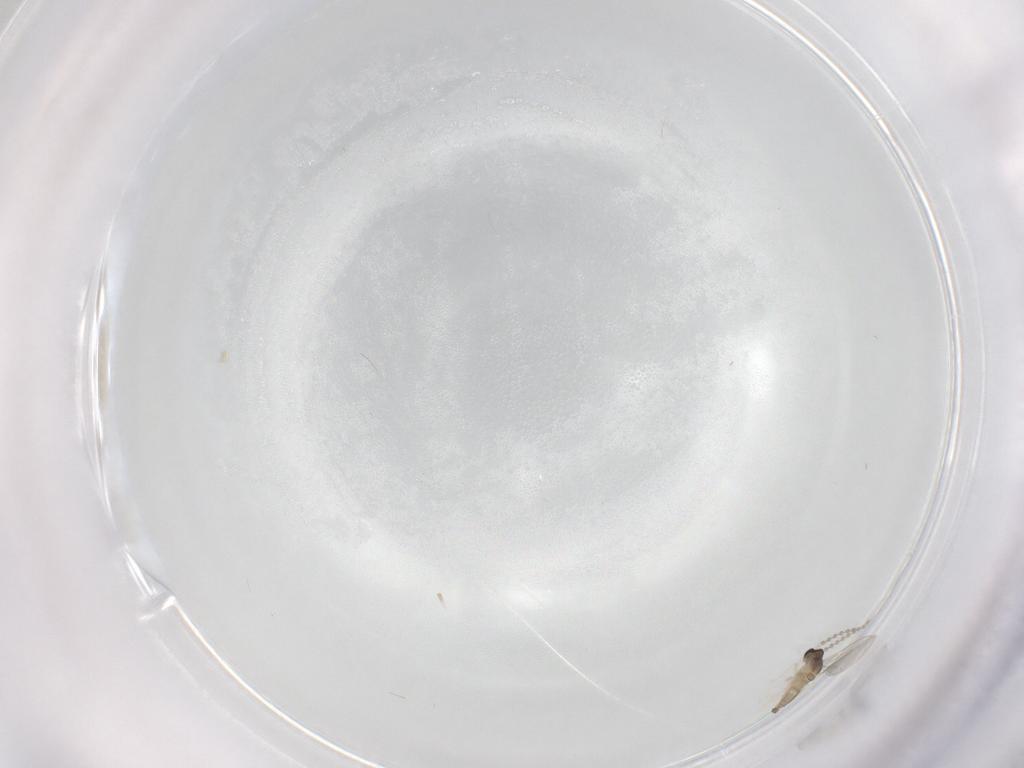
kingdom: Animalia
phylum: Arthropoda
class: Insecta
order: Diptera
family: Cecidomyiidae
